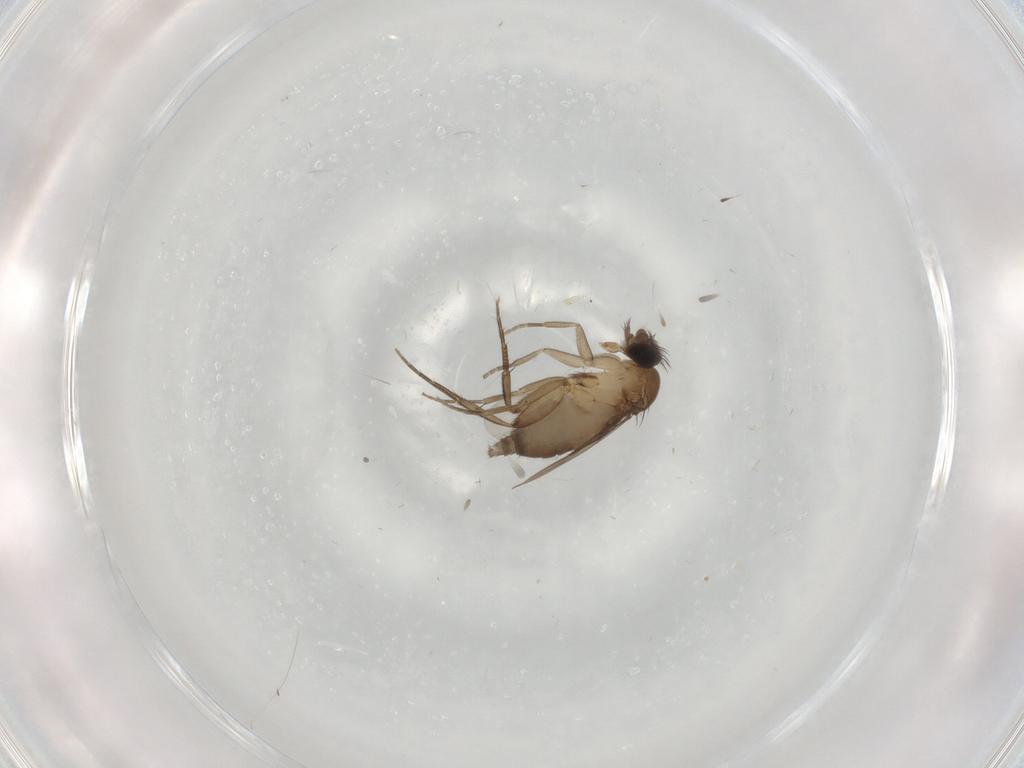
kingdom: Animalia
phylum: Arthropoda
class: Insecta
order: Diptera
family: Phoridae
